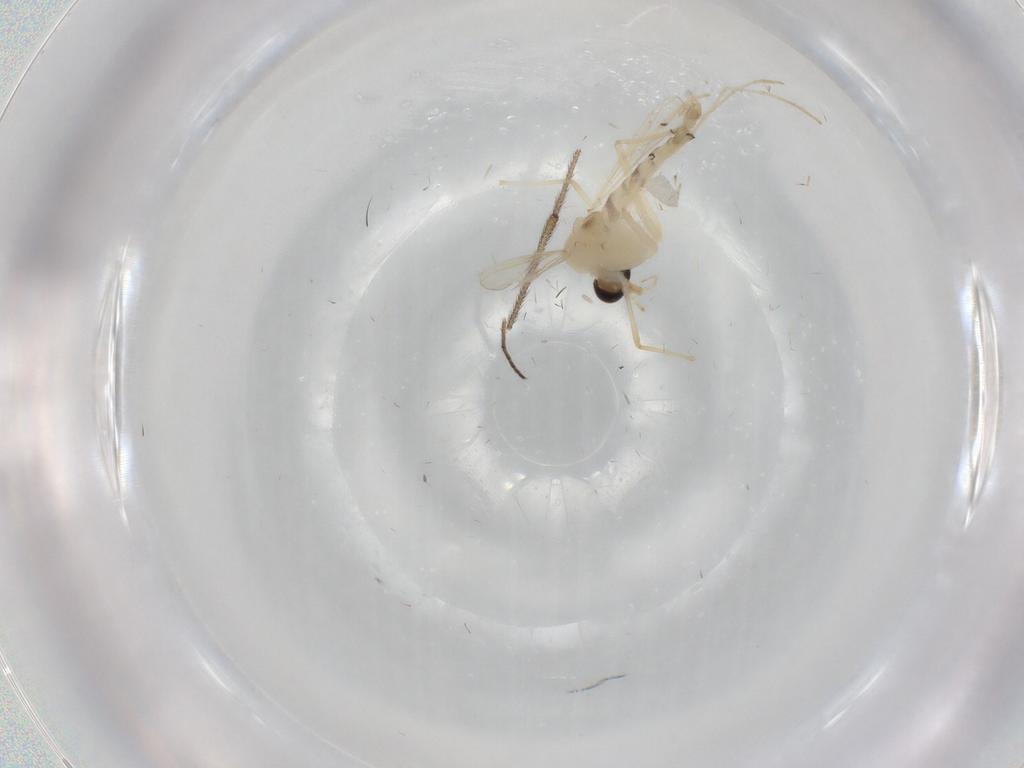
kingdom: Animalia
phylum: Arthropoda
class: Insecta
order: Diptera
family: Chironomidae
